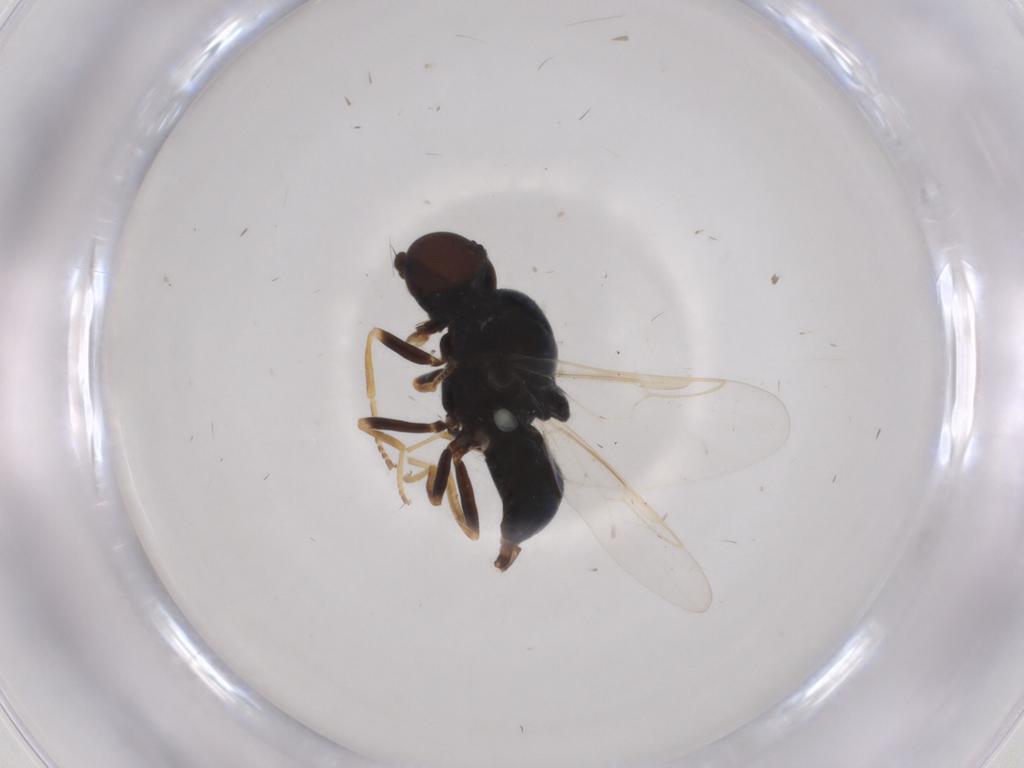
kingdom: Animalia
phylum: Arthropoda
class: Insecta
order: Diptera
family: Stratiomyidae
